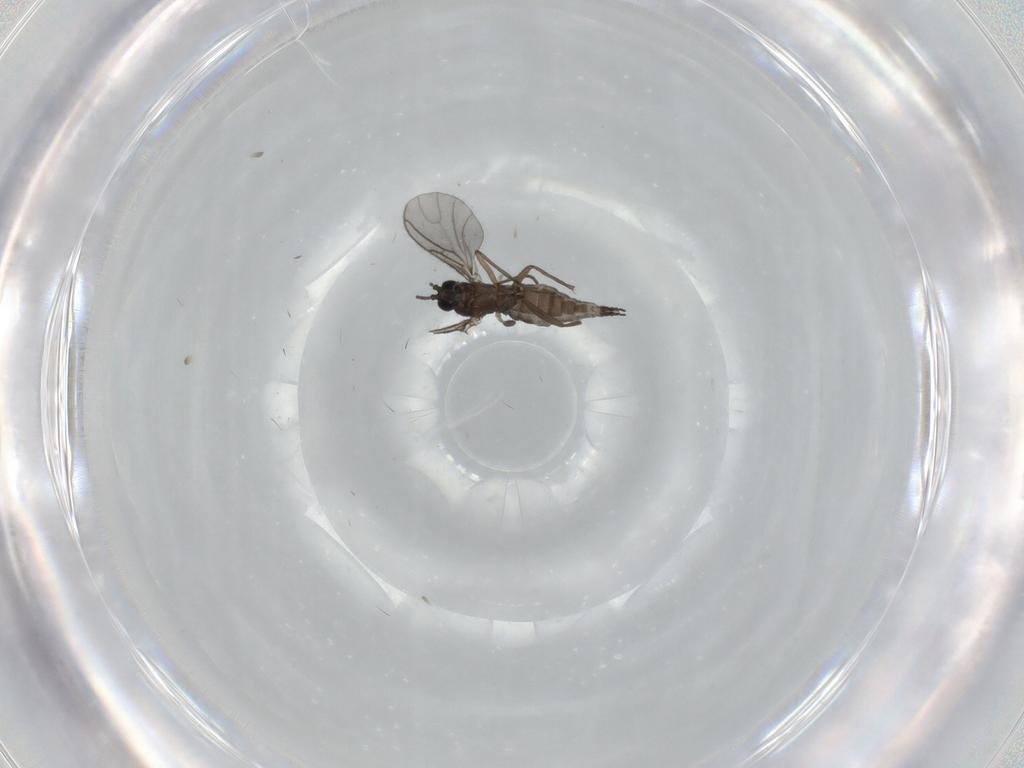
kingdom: Animalia
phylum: Arthropoda
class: Insecta
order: Diptera
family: Sciaridae
